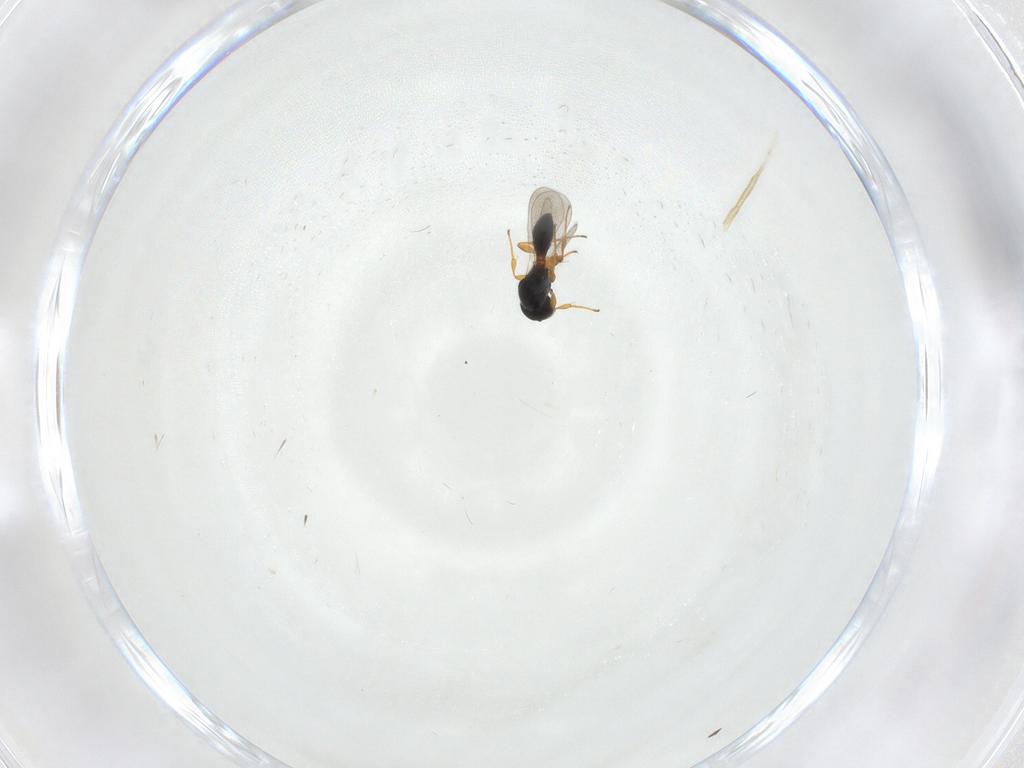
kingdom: Animalia
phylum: Arthropoda
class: Insecta
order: Hymenoptera
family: Platygastridae
